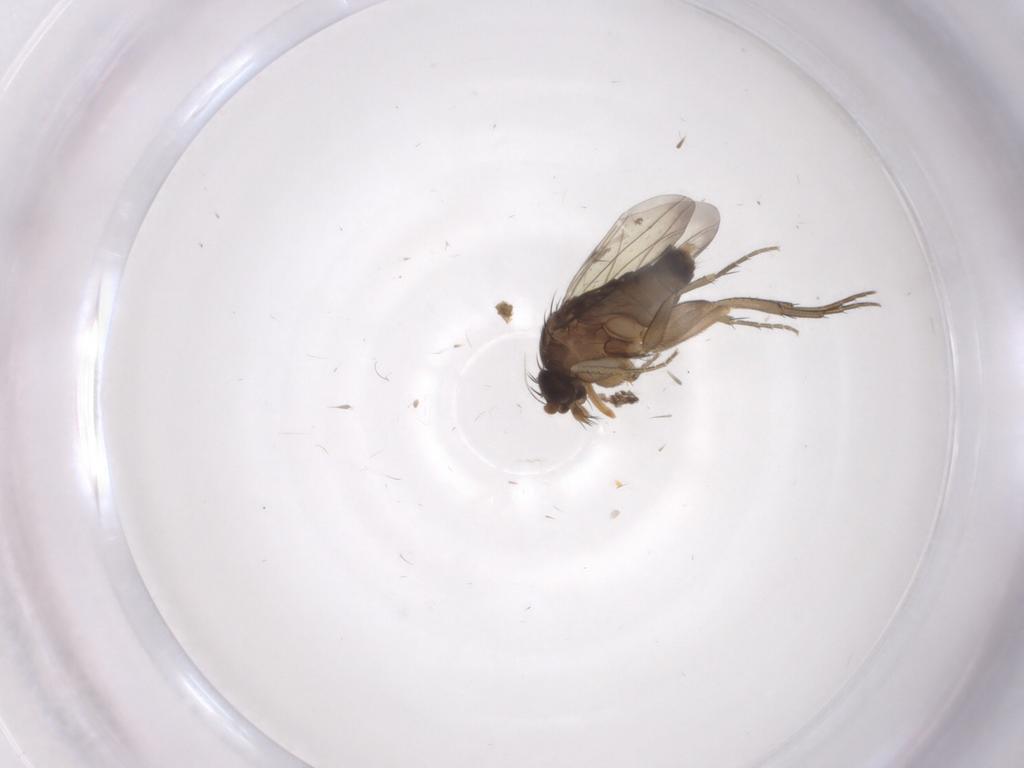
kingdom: Animalia
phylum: Arthropoda
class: Insecta
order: Diptera
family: Phoridae
